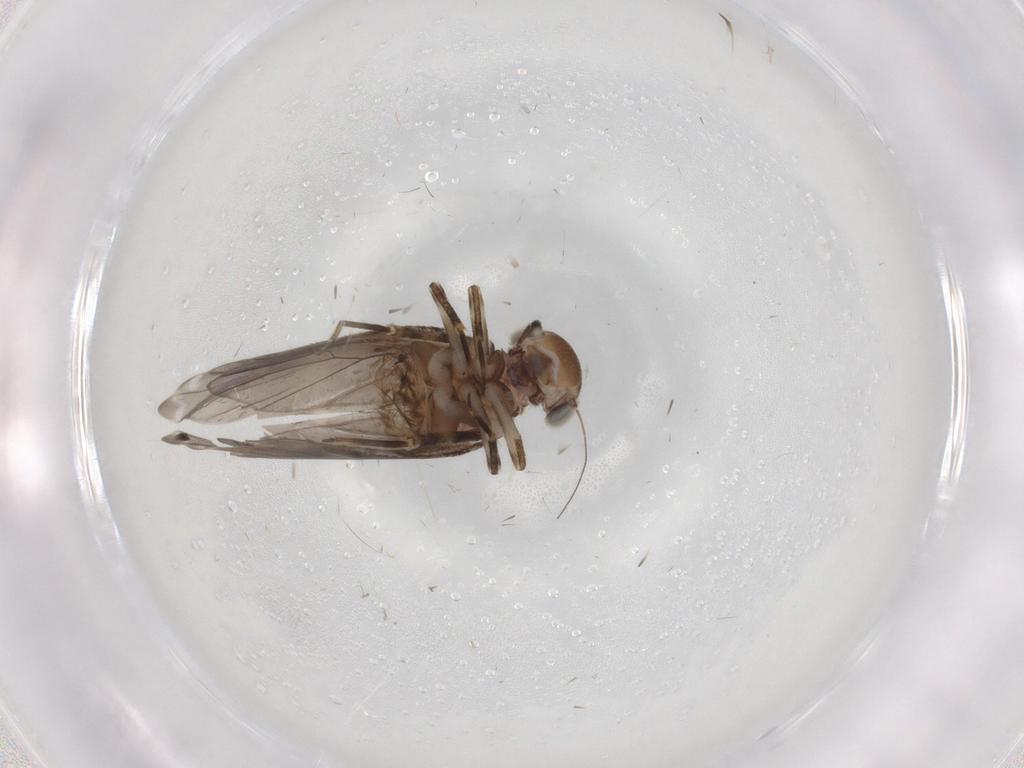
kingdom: Animalia
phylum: Arthropoda
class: Insecta
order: Psocodea
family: Amphientomidae
